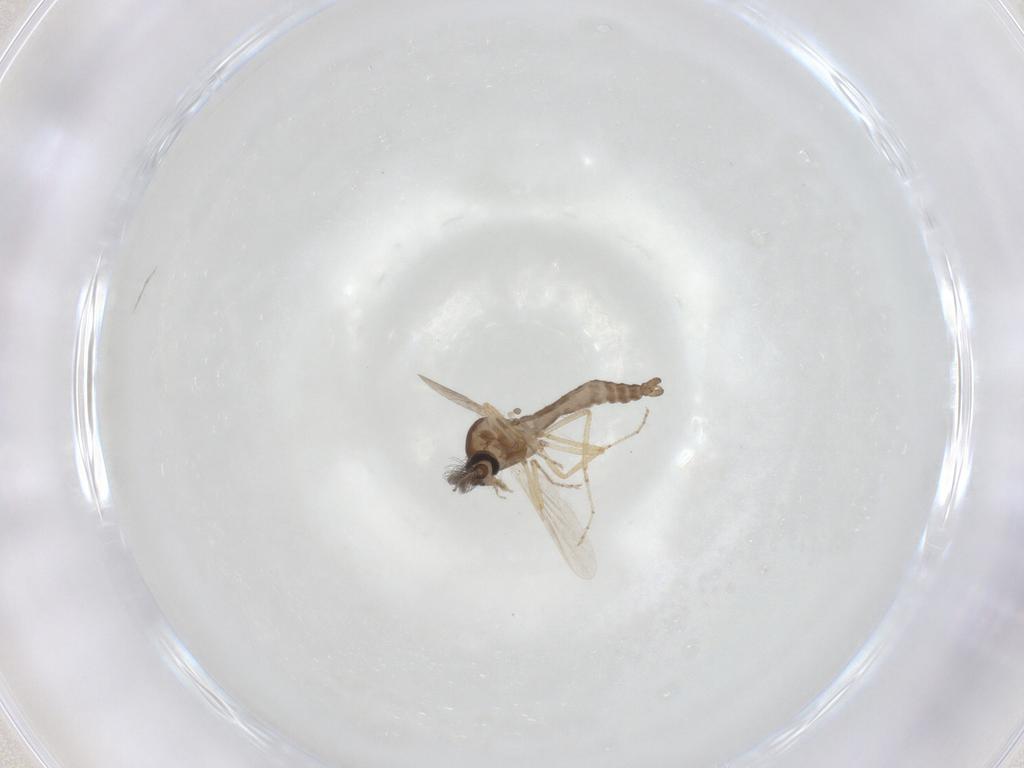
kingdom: Animalia
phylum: Arthropoda
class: Insecta
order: Diptera
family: Ceratopogonidae
